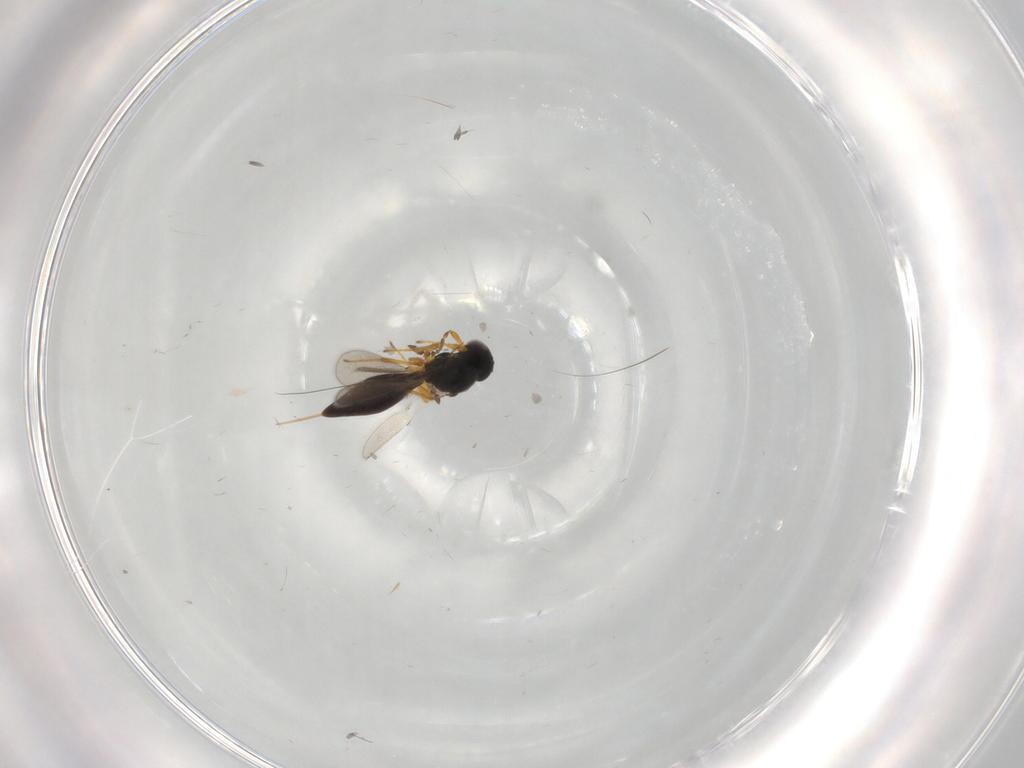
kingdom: Animalia
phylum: Arthropoda
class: Insecta
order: Hymenoptera
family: Platygastridae
